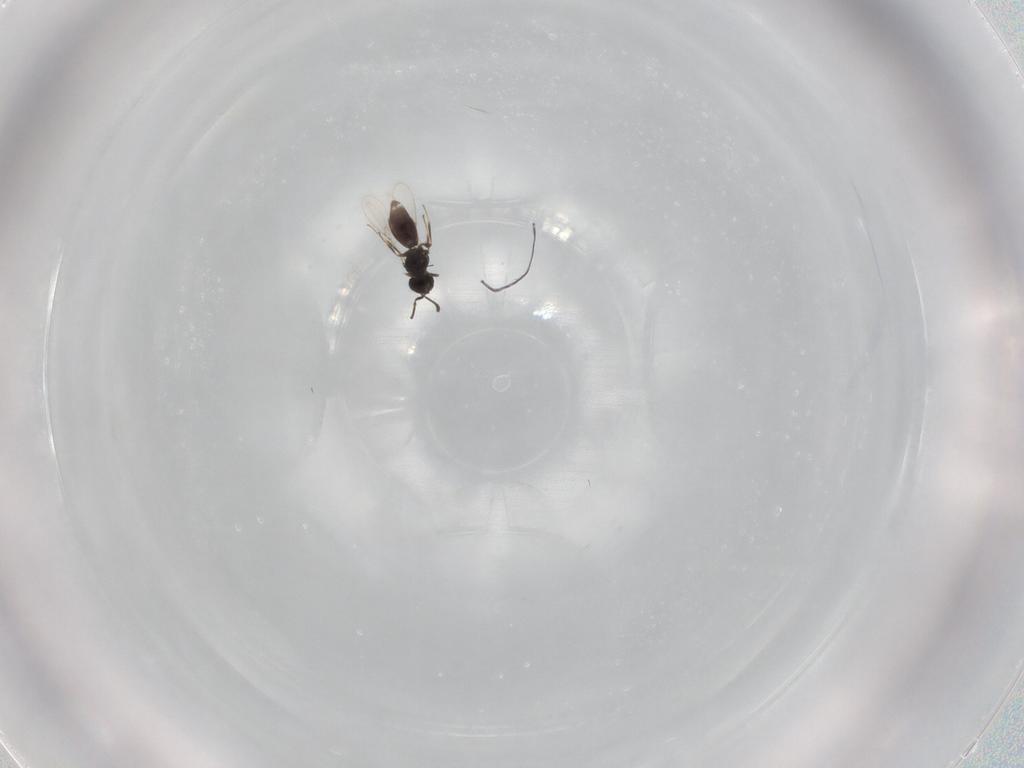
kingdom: Animalia
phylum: Arthropoda
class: Insecta
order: Hymenoptera
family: Scelionidae
